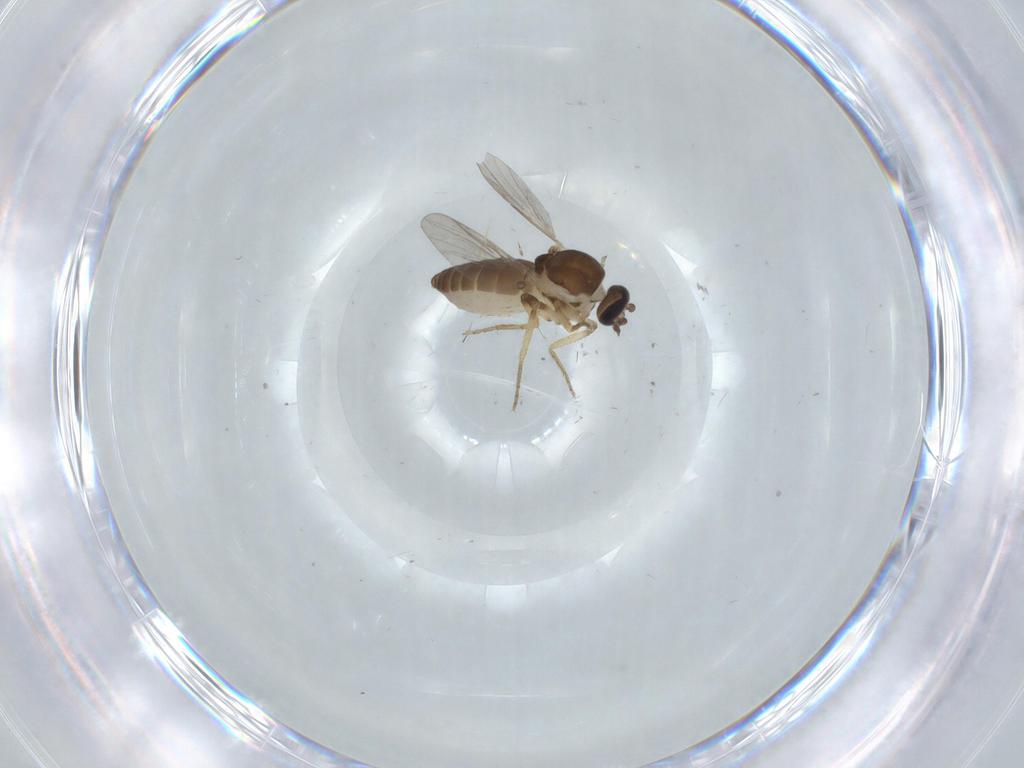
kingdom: Animalia
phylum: Arthropoda
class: Insecta
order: Diptera
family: Ceratopogonidae
